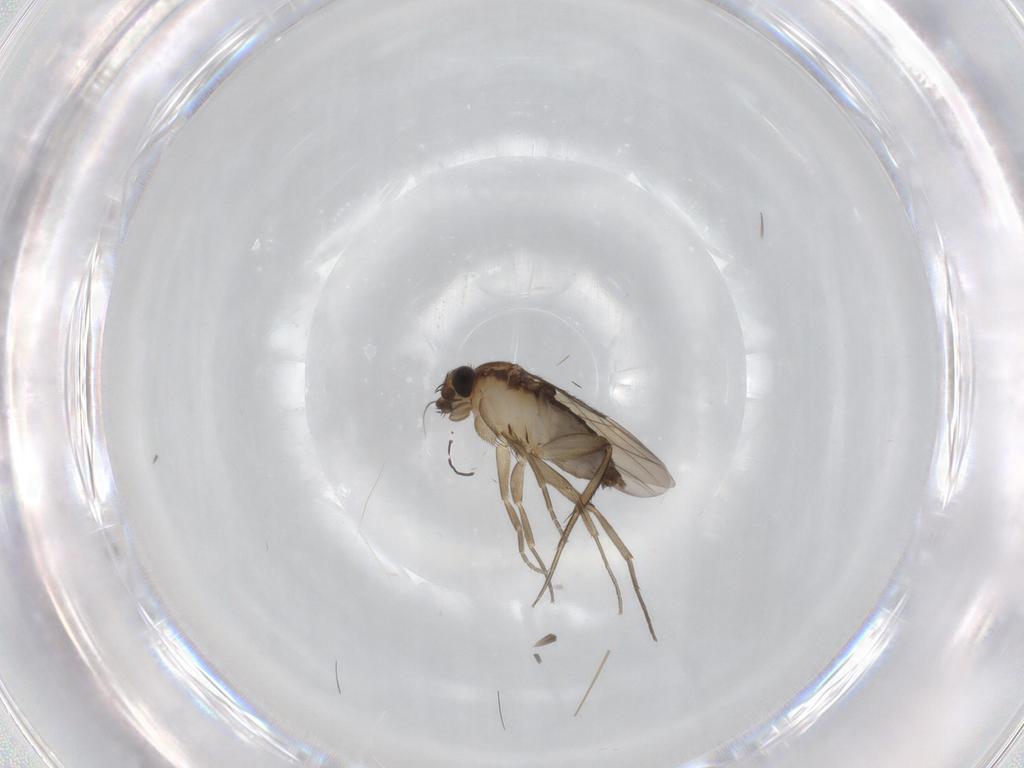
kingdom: Animalia
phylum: Arthropoda
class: Insecta
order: Diptera
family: Phoridae
